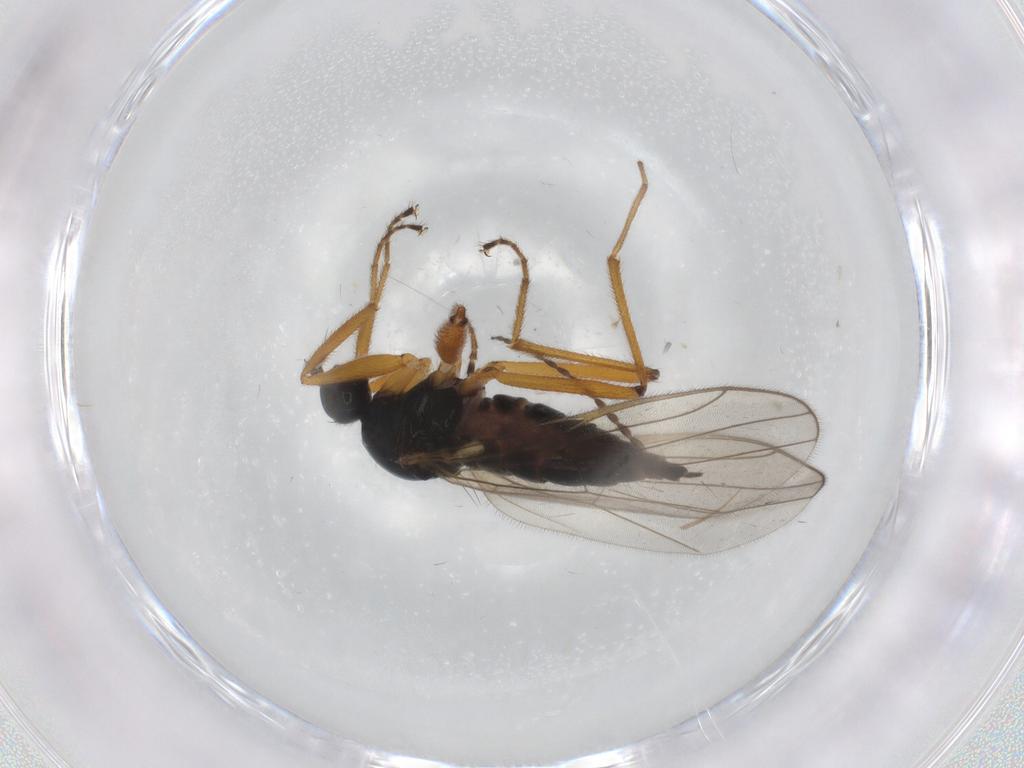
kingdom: Animalia
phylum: Arthropoda
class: Insecta
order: Diptera
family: Hybotidae
